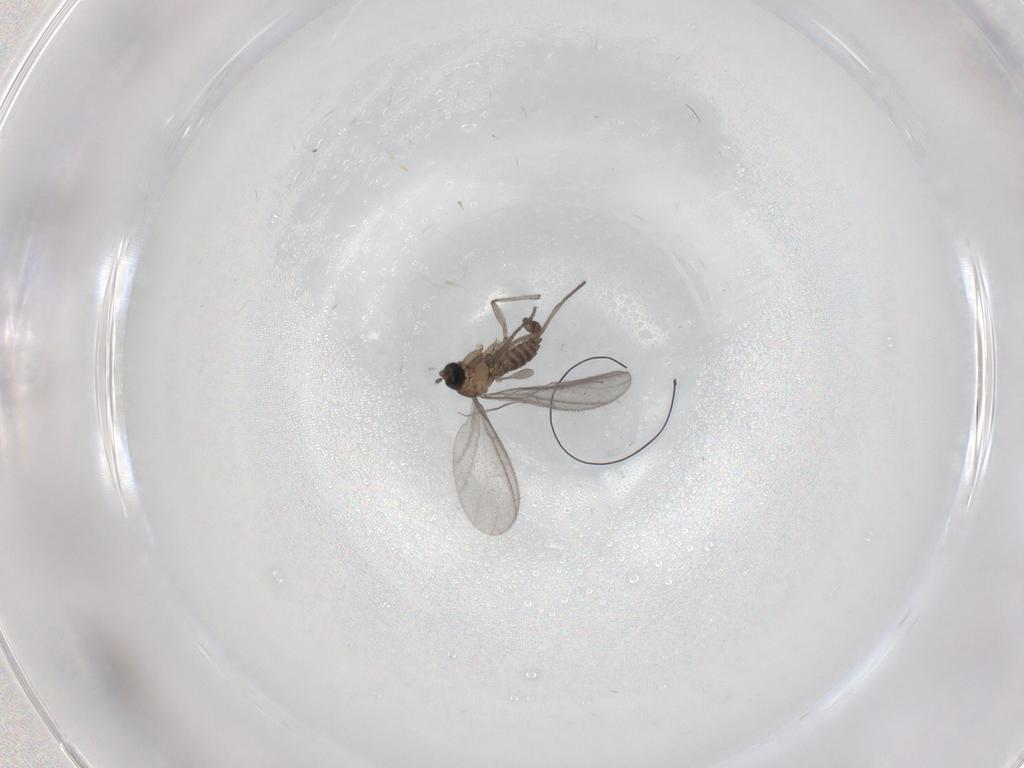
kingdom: Animalia
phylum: Arthropoda
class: Insecta
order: Diptera
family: Sciaridae
